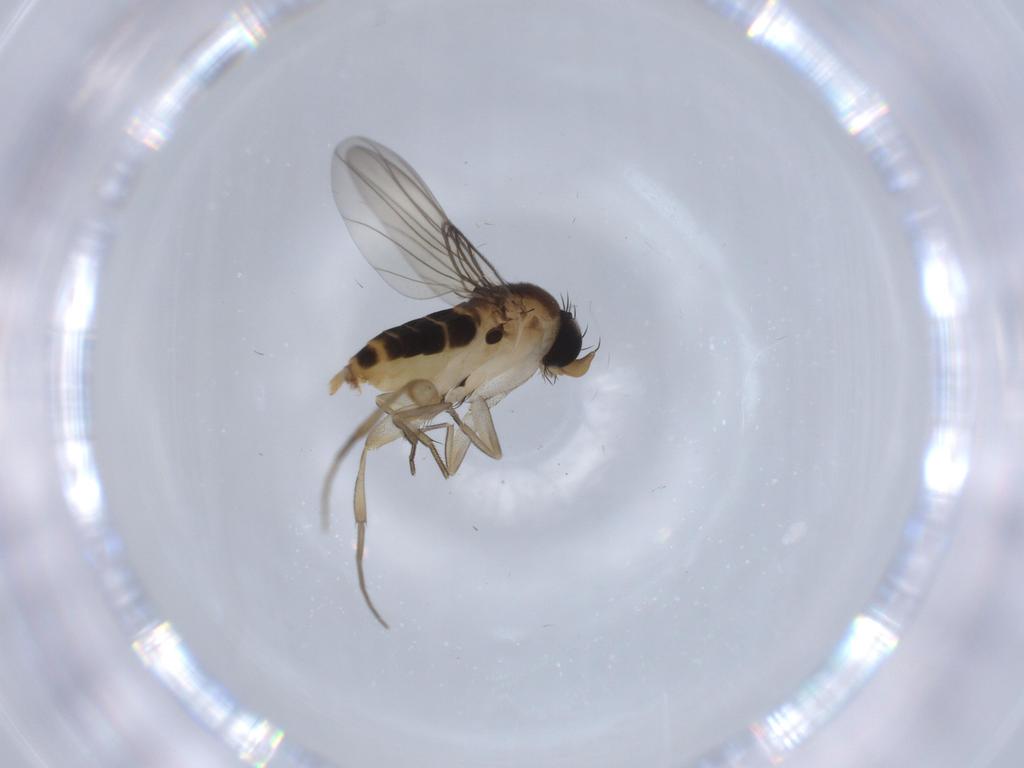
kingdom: Animalia
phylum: Arthropoda
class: Insecta
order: Diptera
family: Phoridae
